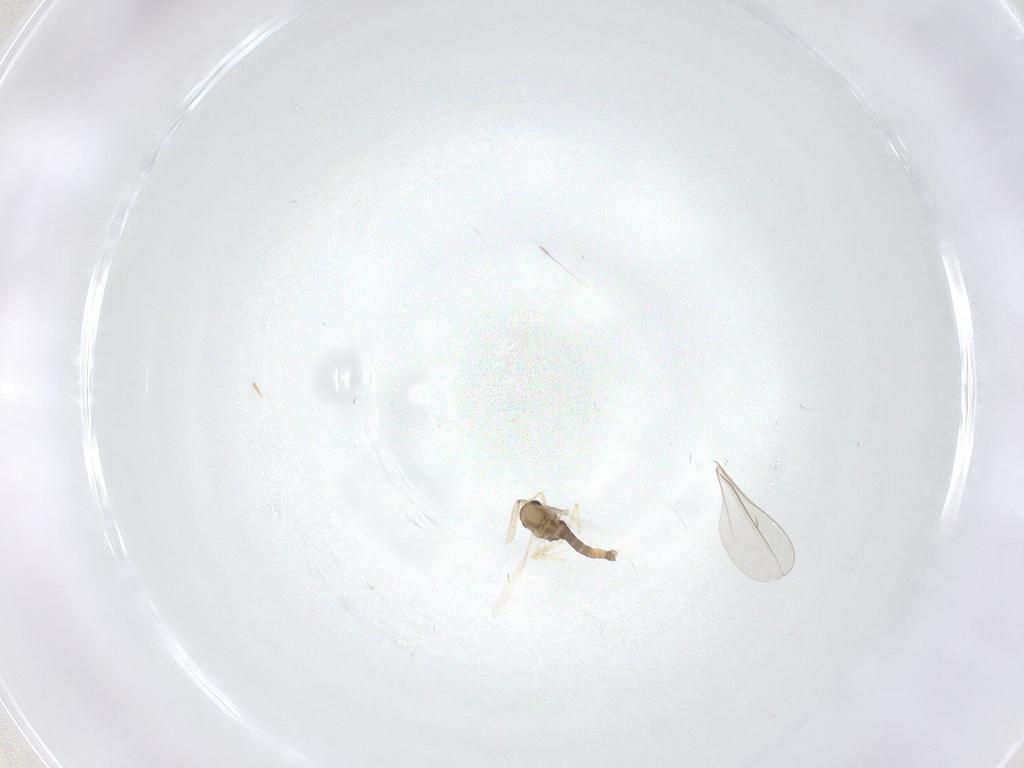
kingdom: Animalia
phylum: Arthropoda
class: Insecta
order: Diptera
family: Chironomidae
